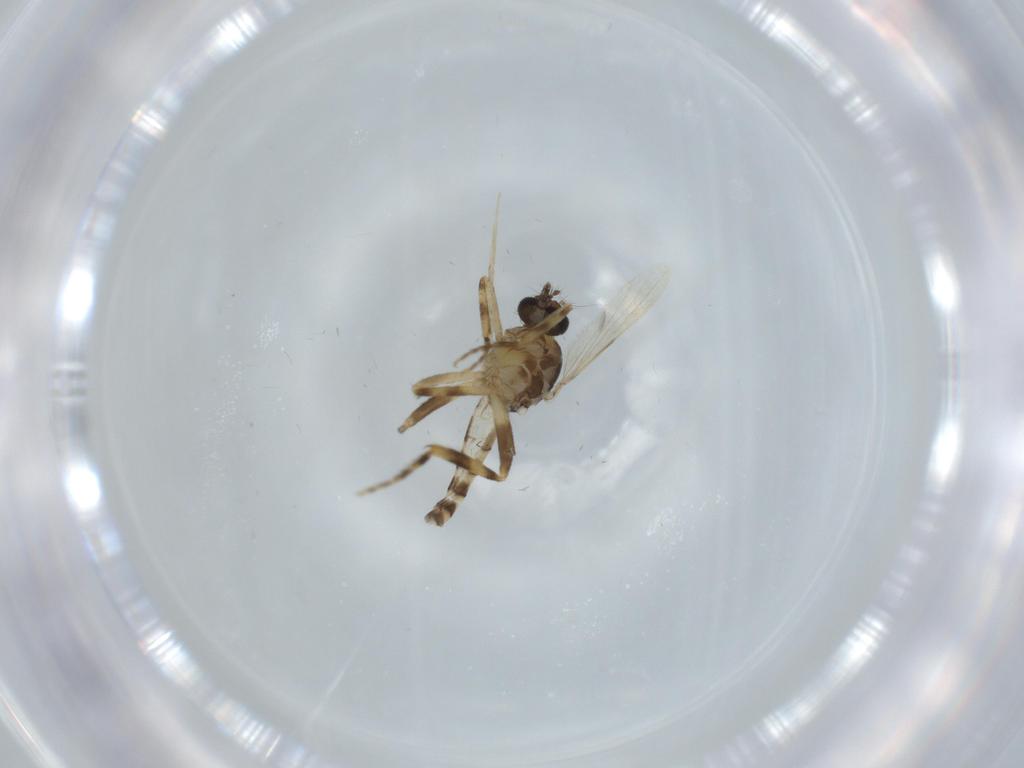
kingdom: Animalia
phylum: Arthropoda
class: Insecta
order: Diptera
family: Ceratopogonidae
